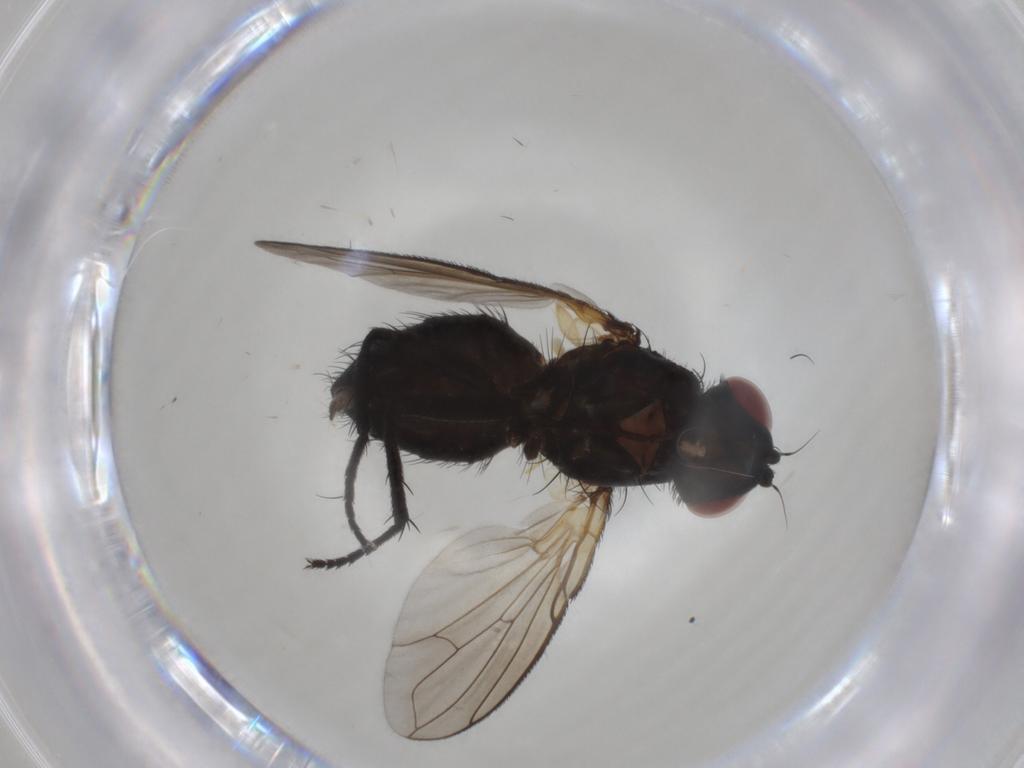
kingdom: Animalia
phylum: Arthropoda
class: Insecta
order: Diptera
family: Calliphoridae
